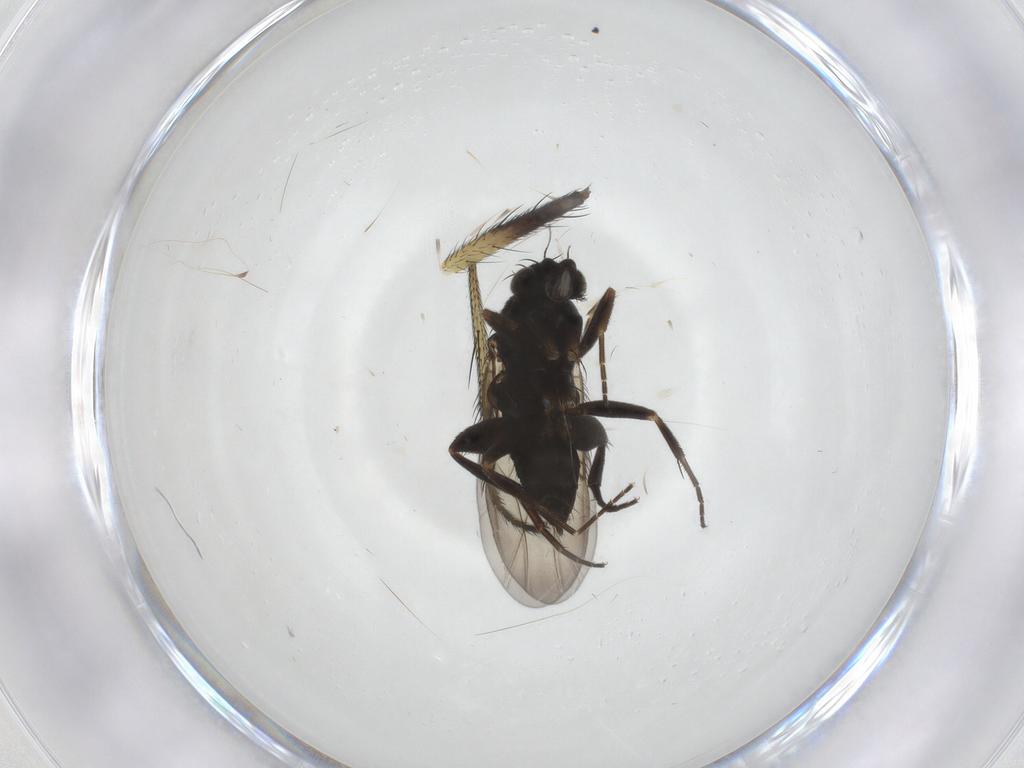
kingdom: Animalia
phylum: Arthropoda
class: Insecta
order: Diptera
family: Phoridae
